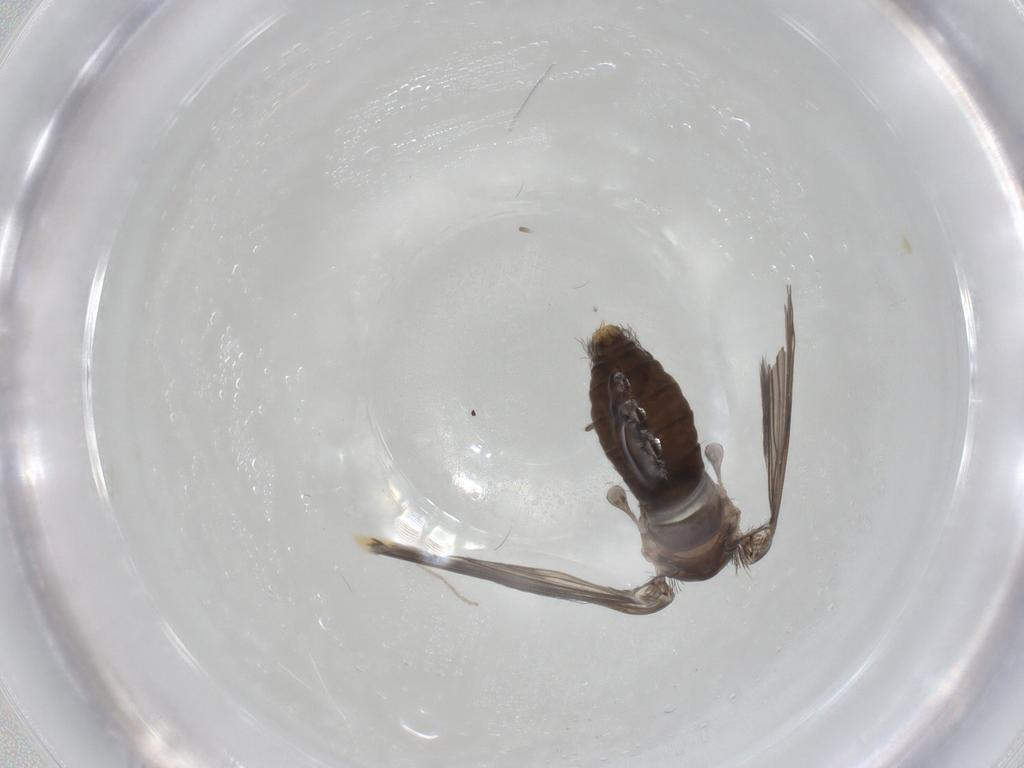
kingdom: Animalia
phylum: Arthropoda
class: Insecta
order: Diptera
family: Psychodidae
